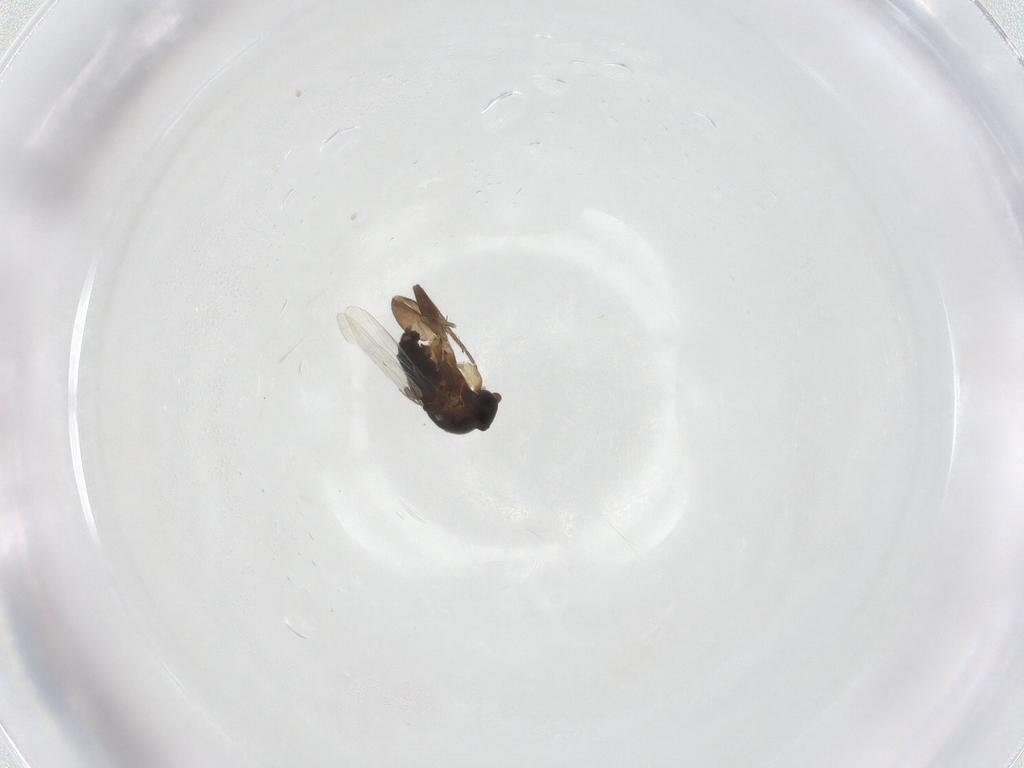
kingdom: Animalia
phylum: Arthropoda
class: Insecta
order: Diptera
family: Phoridae
